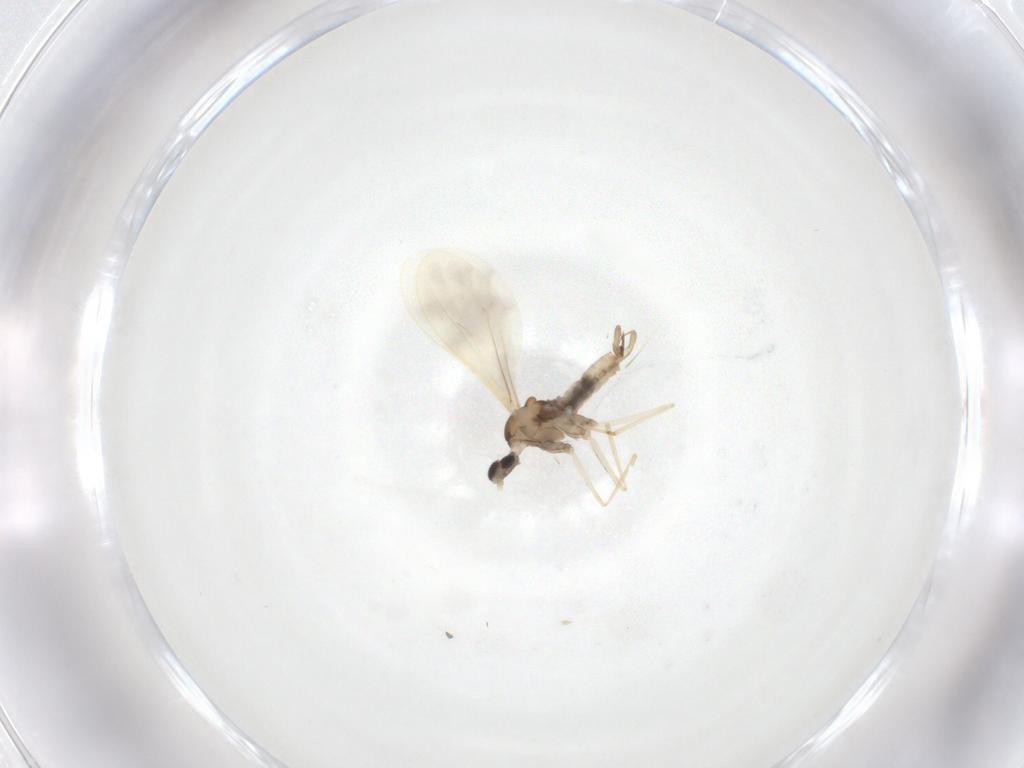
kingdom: Animalia
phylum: Arthropoda
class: Insecta
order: Diptera
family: Cecidomyiidae
